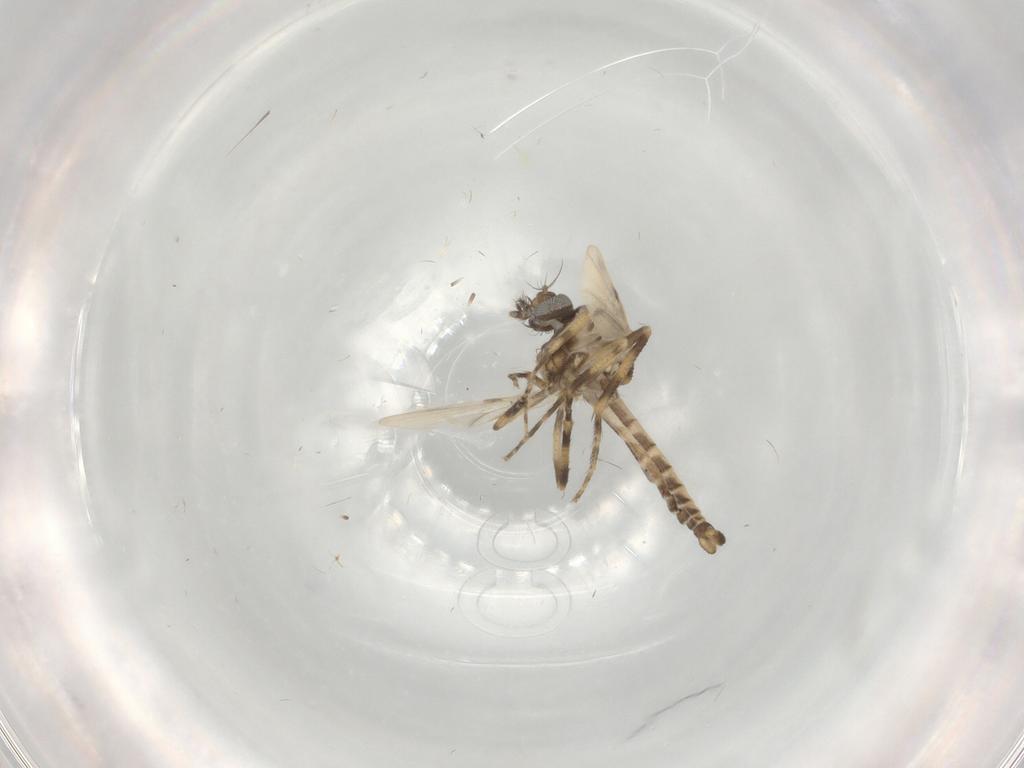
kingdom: Animalia
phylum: Arthropoda
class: Insecta
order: Diptera
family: Ceratopogonidae
